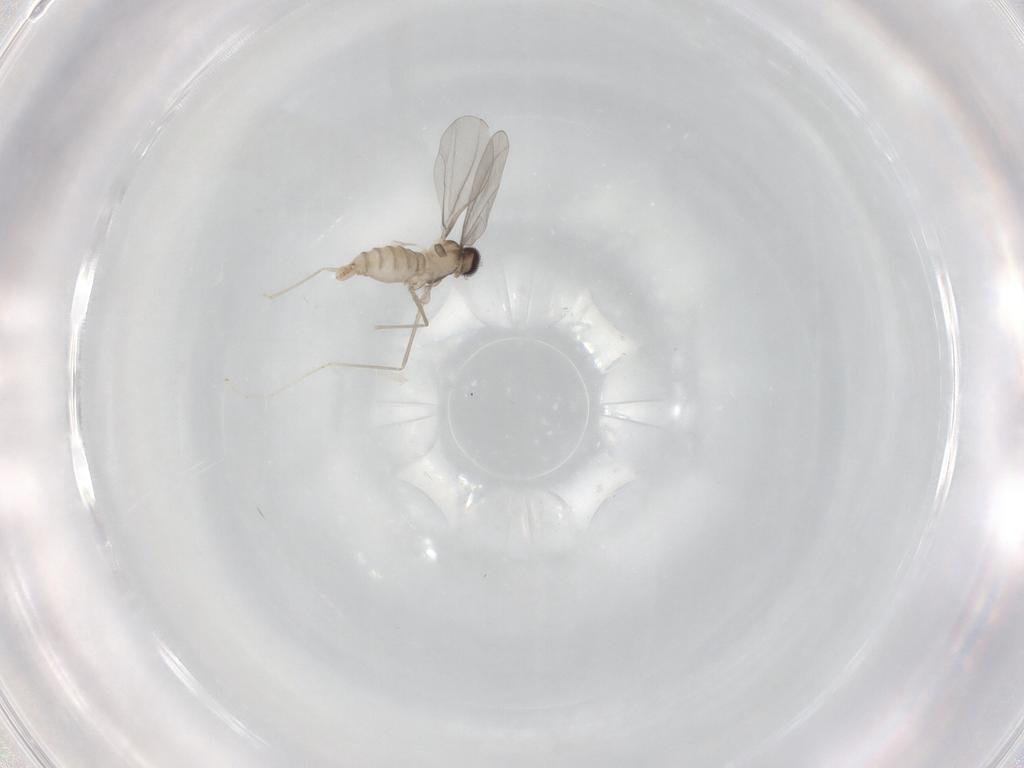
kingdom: Animalia
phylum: Arthropoda
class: Insecta
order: Diptera
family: Cecidomyiidae
